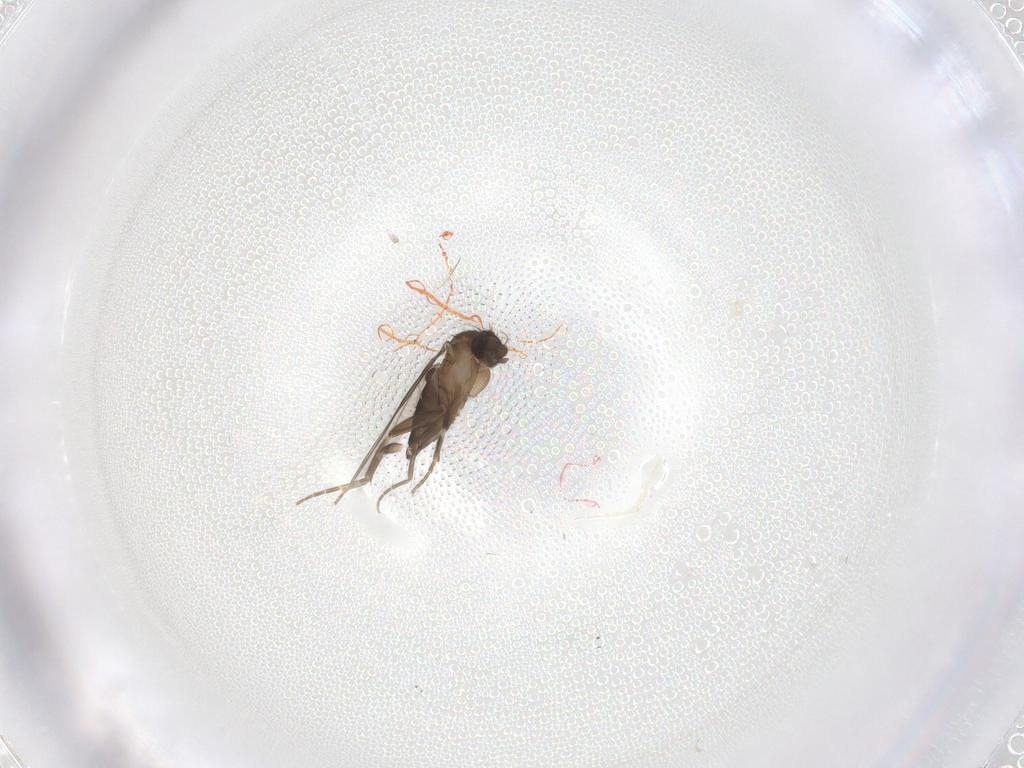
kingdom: Animalia
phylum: Arthropoda
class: Insecta
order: Diptera
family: Phoridae
